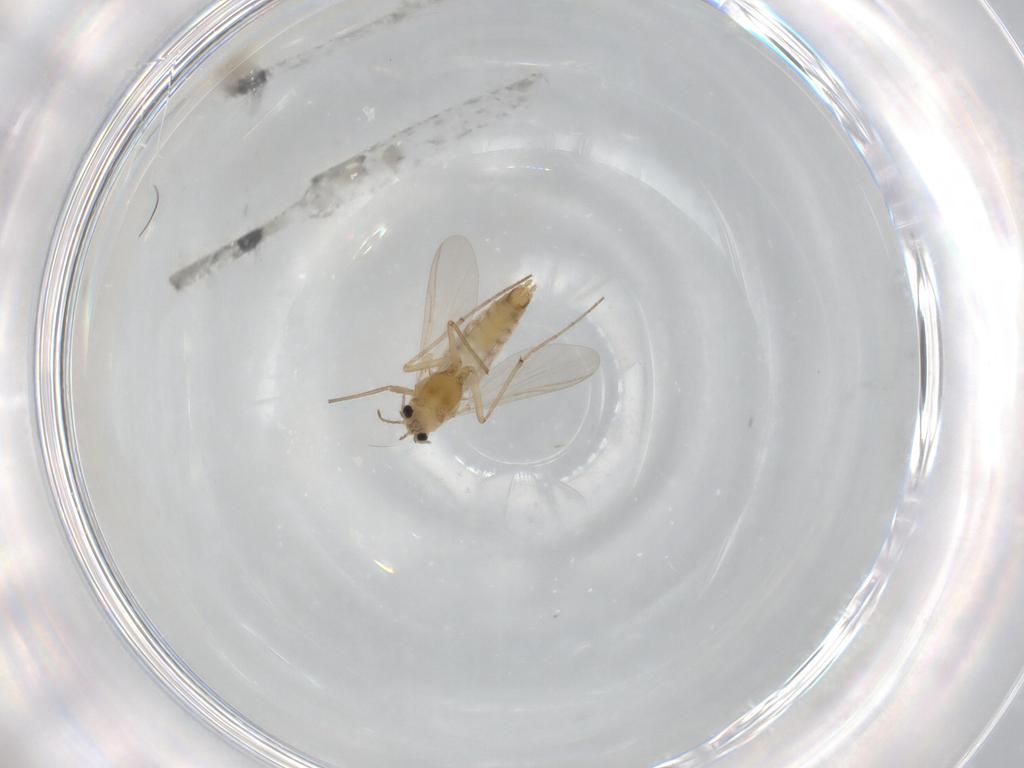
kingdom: Animalia
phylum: Arthropoda
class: Insecta
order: Diptera
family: Chironomidae
